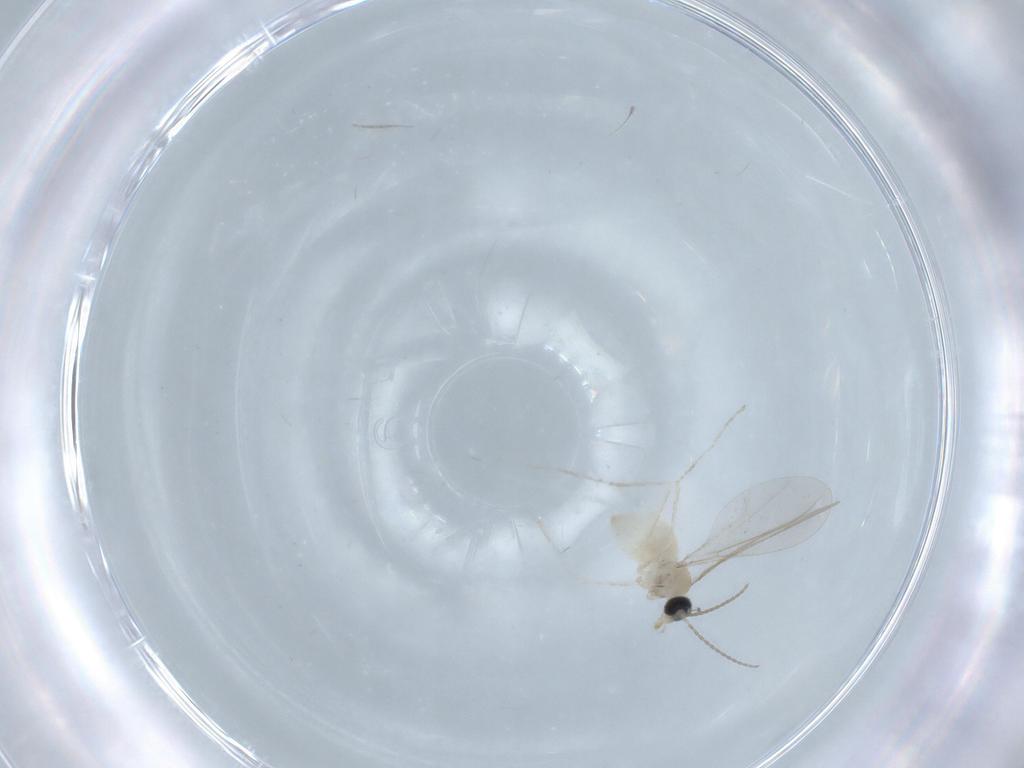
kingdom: Animalia
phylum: Arthropoda
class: Insecta
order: Diptera
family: Cecidomyiidae
